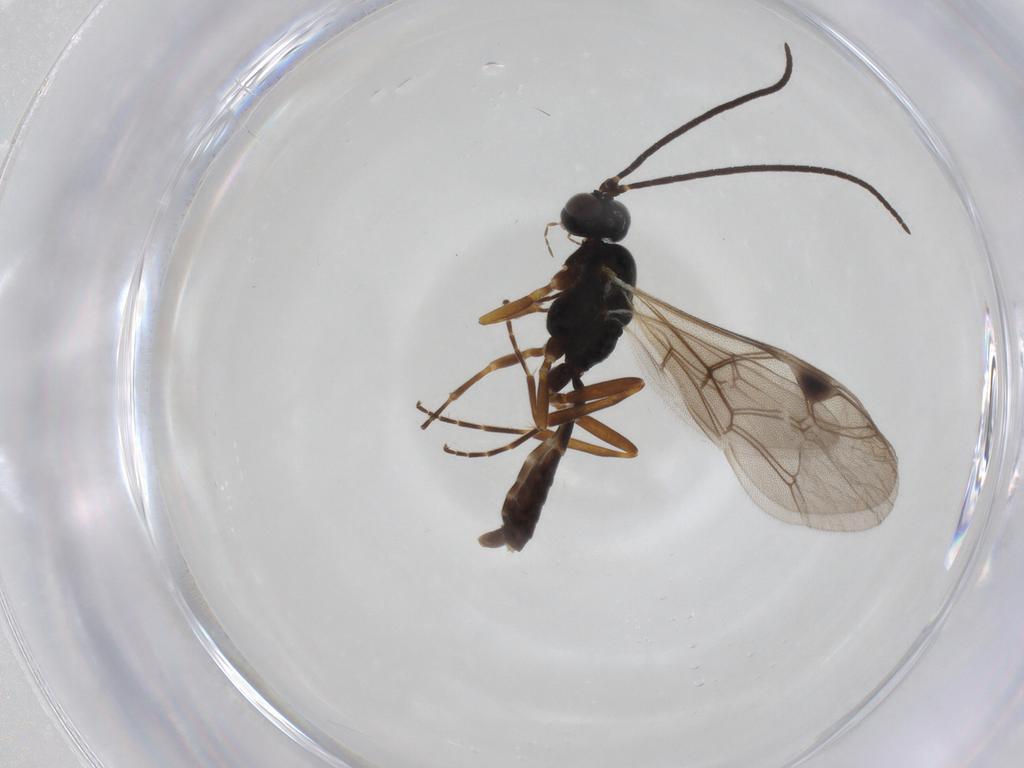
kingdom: Animalia
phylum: Arthropoda
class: Insecta
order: Hymenoptera
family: Ichneumonidae
